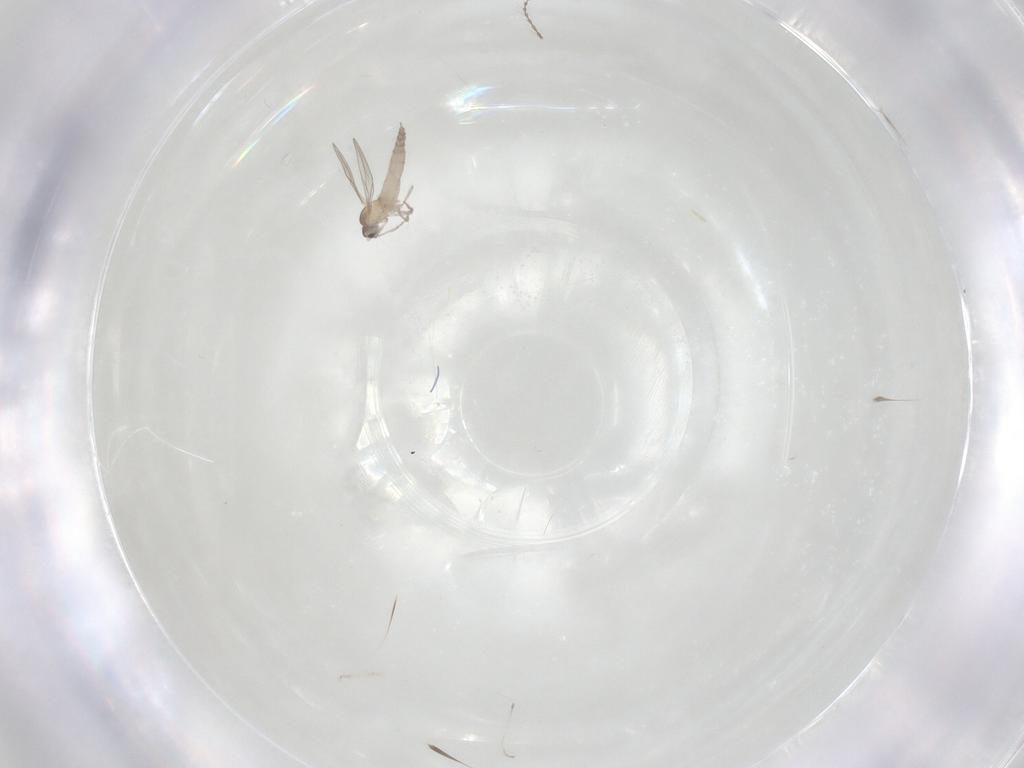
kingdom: Animalia
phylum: Arthropoda
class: Insecta
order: Diptera
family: Cecidomyiidae
